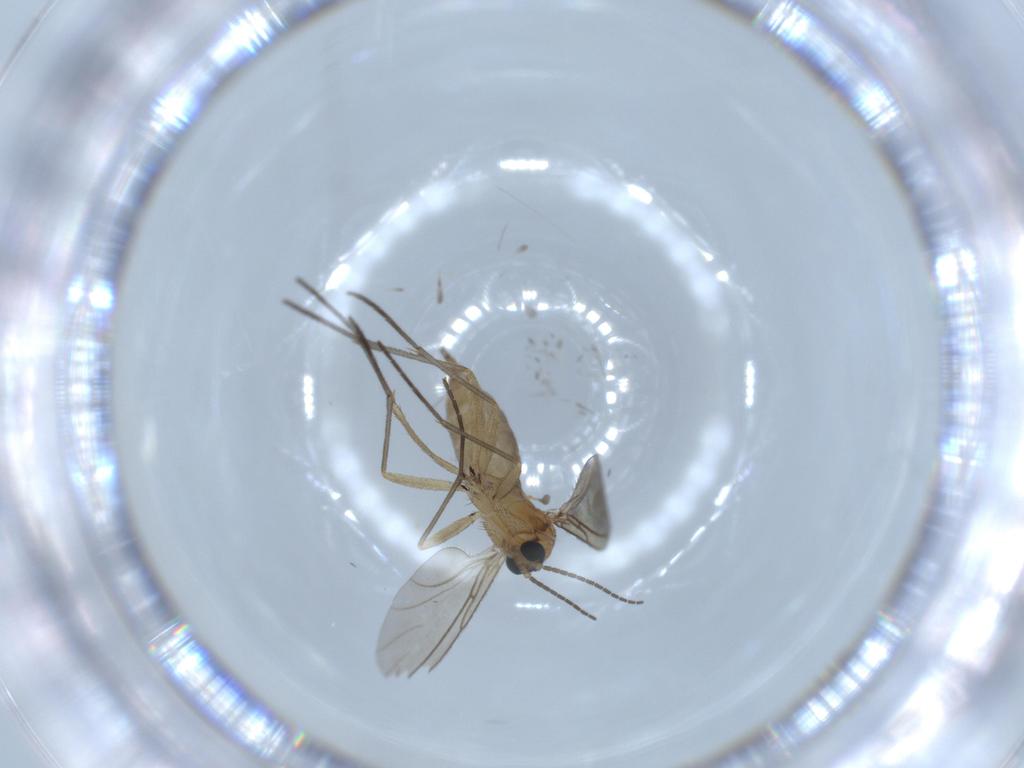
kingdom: Animalia
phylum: Arthropoda
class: Insecta
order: Diptera
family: Sciaridae
